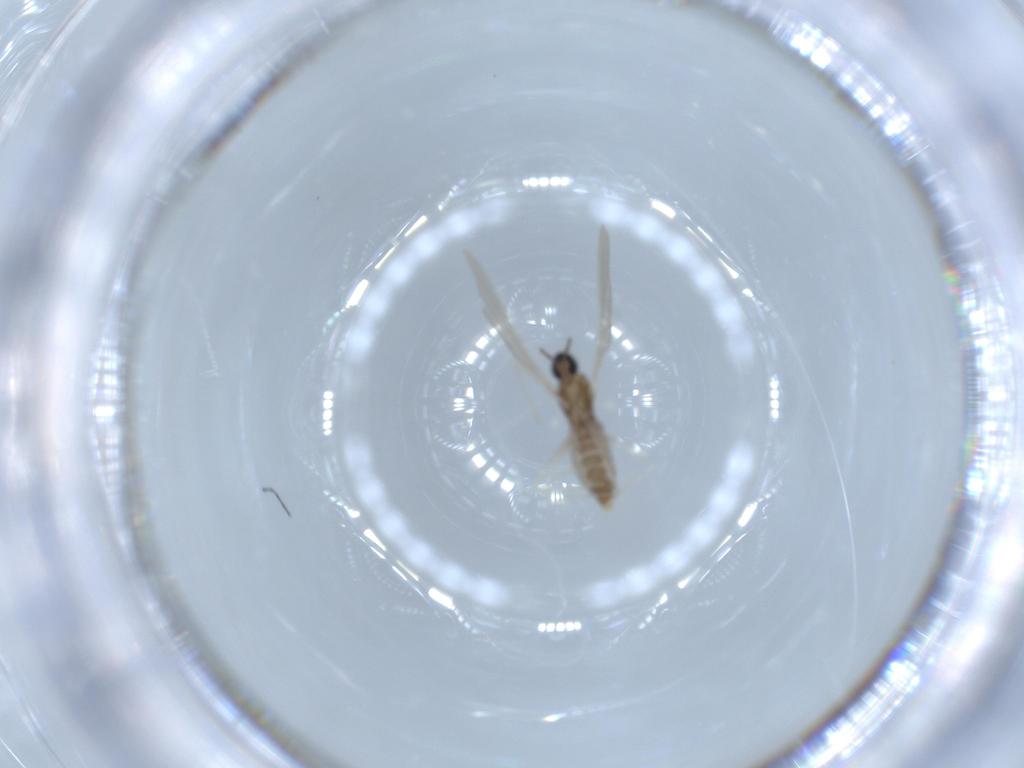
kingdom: Animalia
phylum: Arthropoda
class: Insecta
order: Diptera
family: Cecidomyiidae
